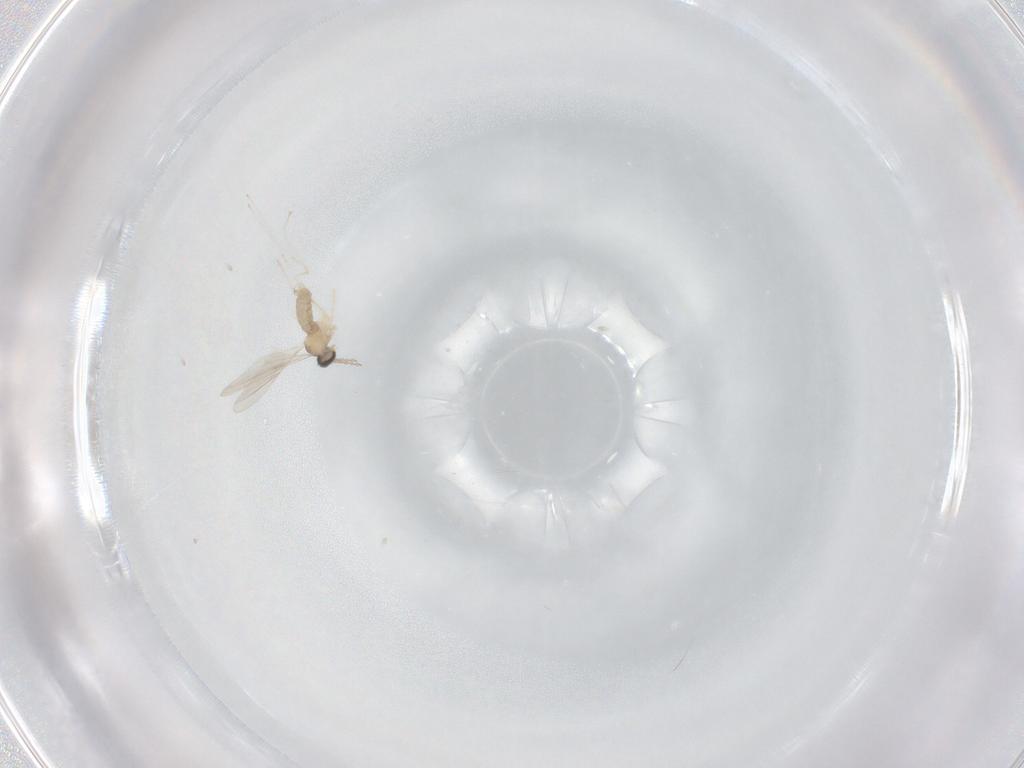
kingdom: Animalia
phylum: Arthropoda
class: Insecta
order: Diptera
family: Cecidomyiidae
